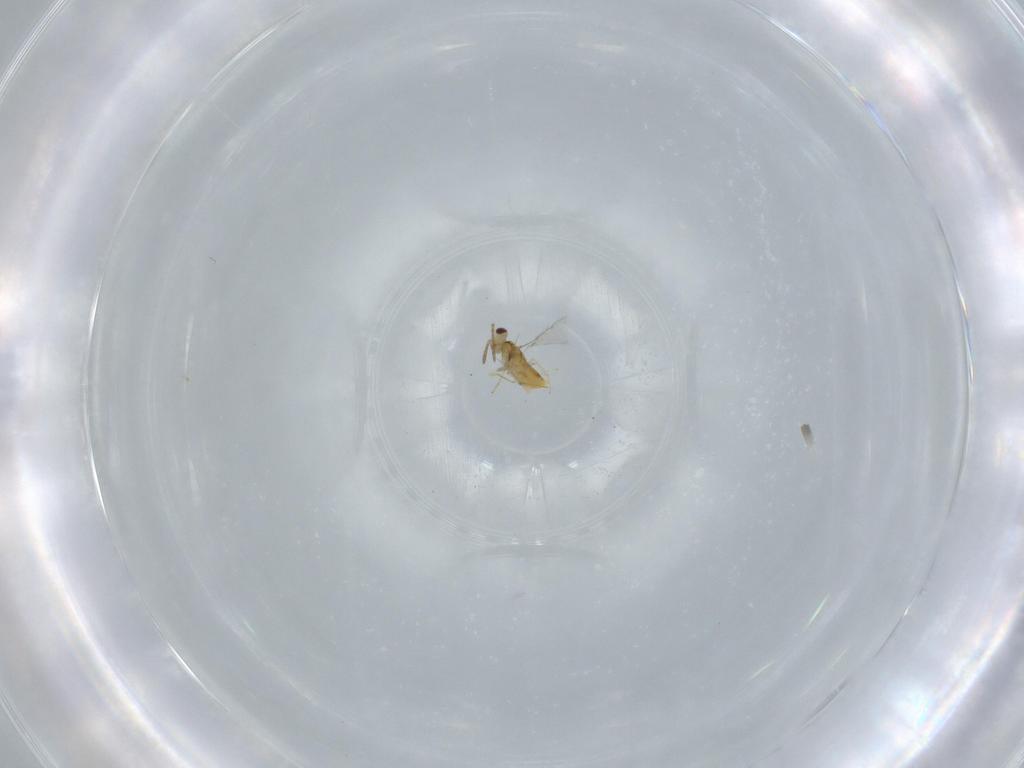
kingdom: Animalia
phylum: Arthropoda
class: Insecta
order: Hymenoptera
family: Aphelinidae
